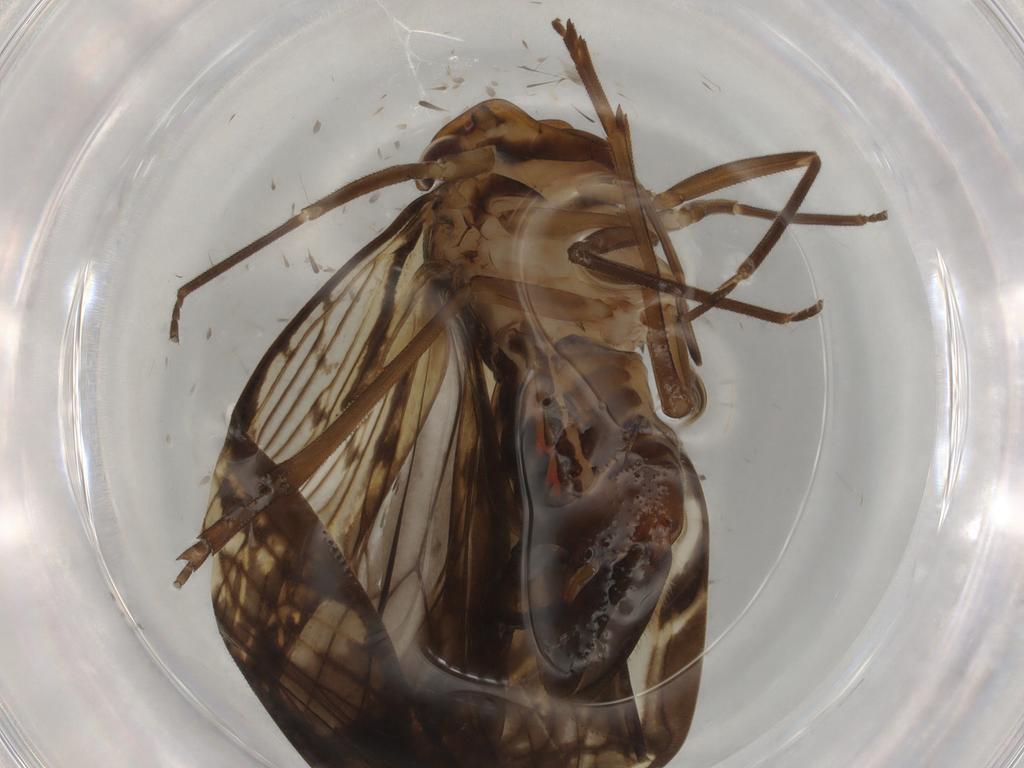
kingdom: Animalia
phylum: Arthropoda
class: Insecta
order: Hemiptera
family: Cixiidae
